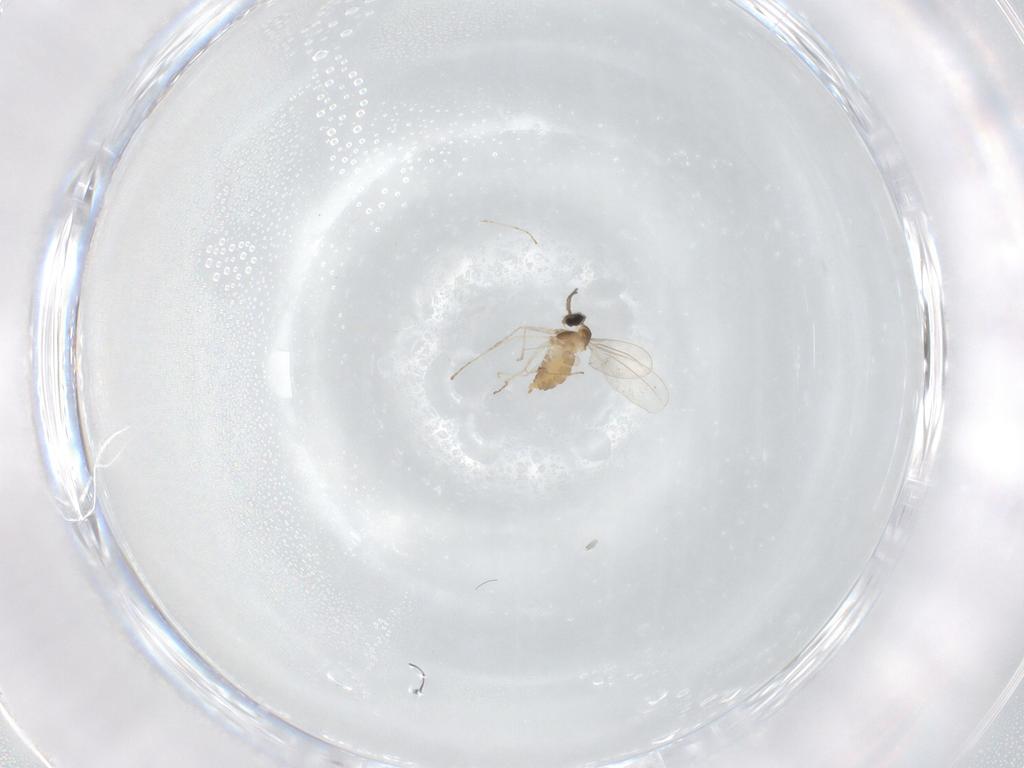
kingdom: Animalia
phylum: Arthropoda
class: Insecta
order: Diptera
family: Cecidomyiidae
